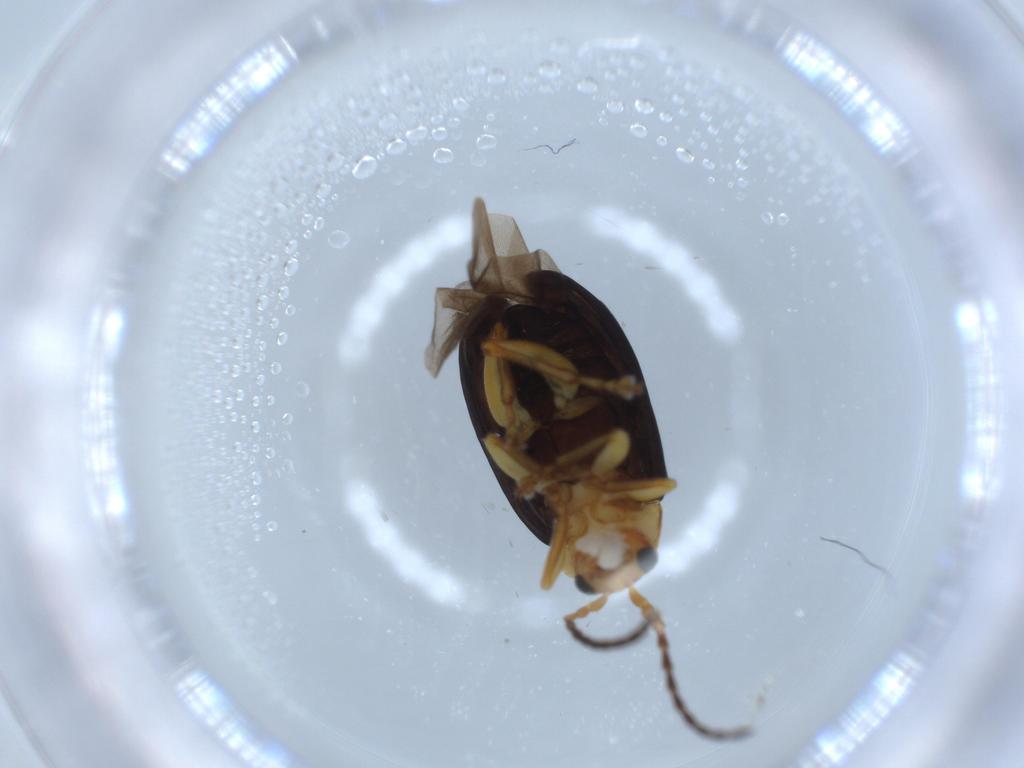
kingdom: Animalia
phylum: Arthropoda
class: Insecta
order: Coleoptera
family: Chrysomelidae
